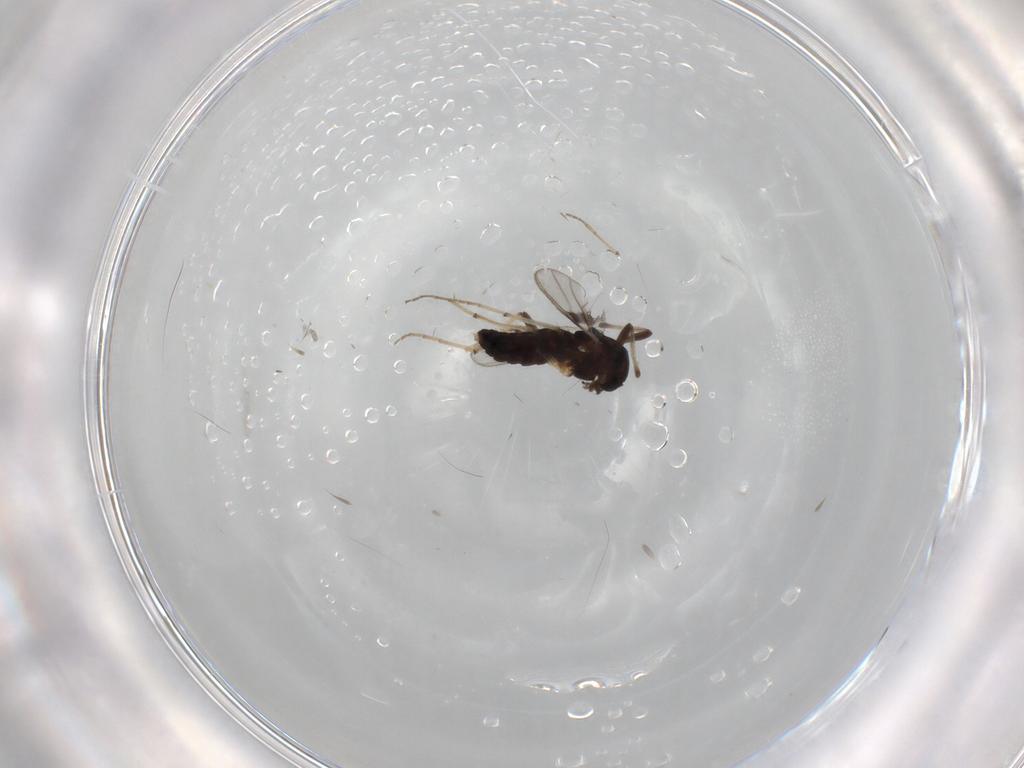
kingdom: Animalia
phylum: Arthropoda
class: Insecta
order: Diptera
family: Chironomidae
